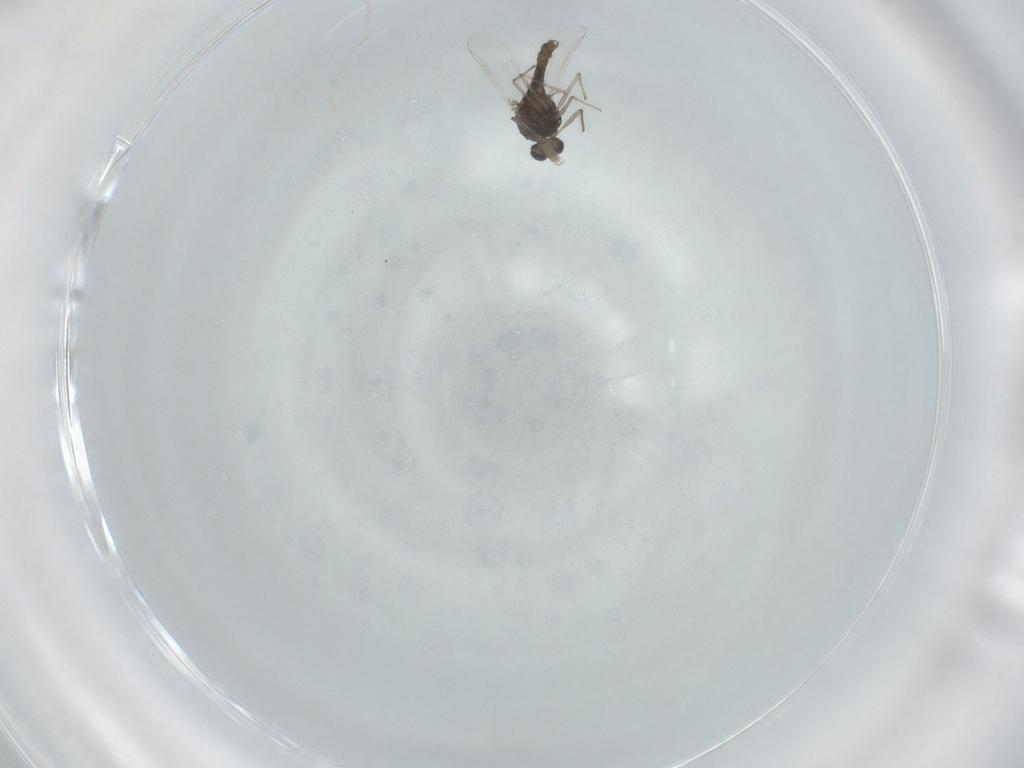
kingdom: Animalia
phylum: Arthropoda
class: Insecta
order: Diptera
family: Chironomidae
